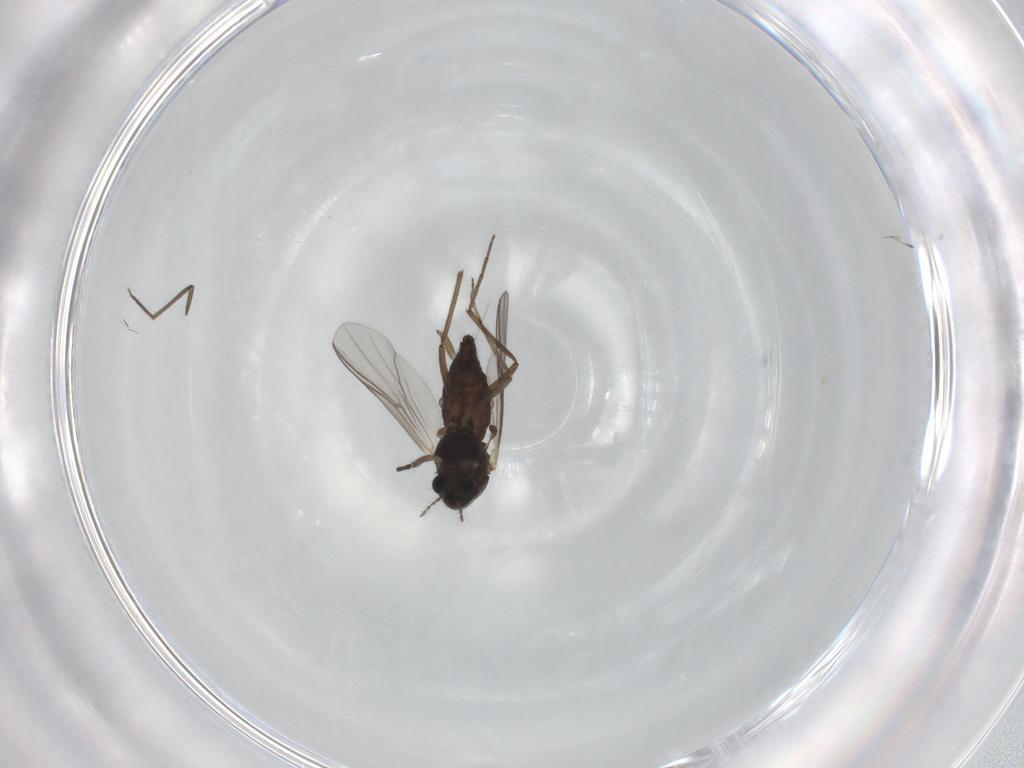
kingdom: Animalia
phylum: Arthropoda
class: Insecta
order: Diptera
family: Chironomidae
